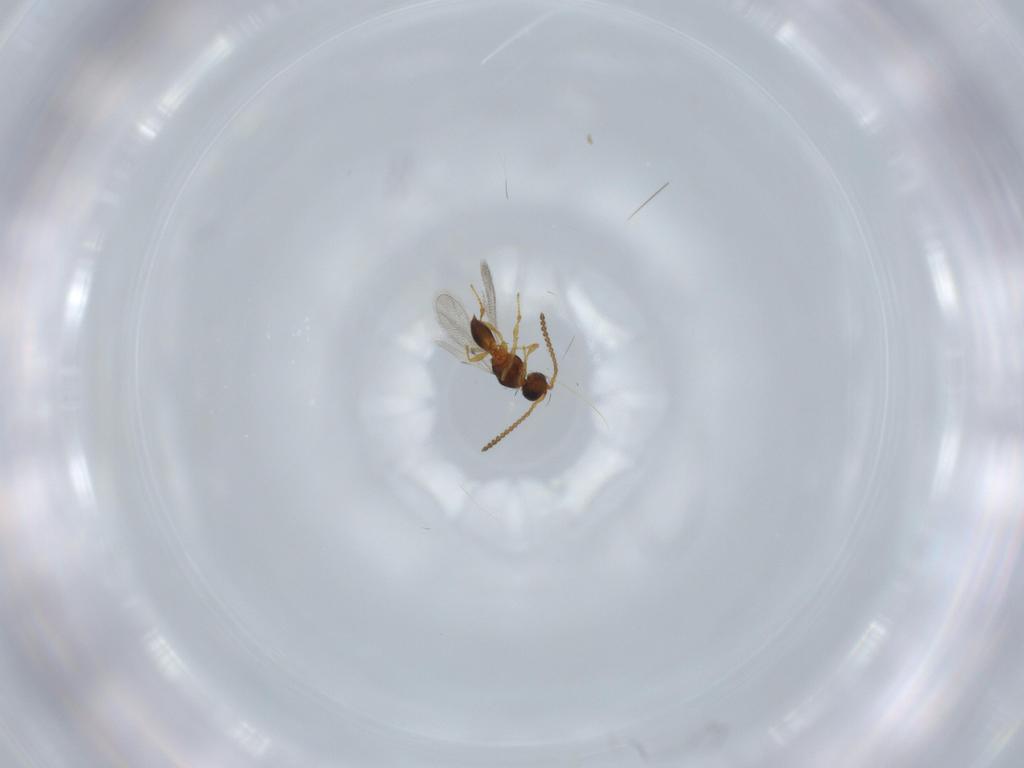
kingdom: Animalia
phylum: Arthropoda
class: Insecta
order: Hymenoptera
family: Diapriidae
